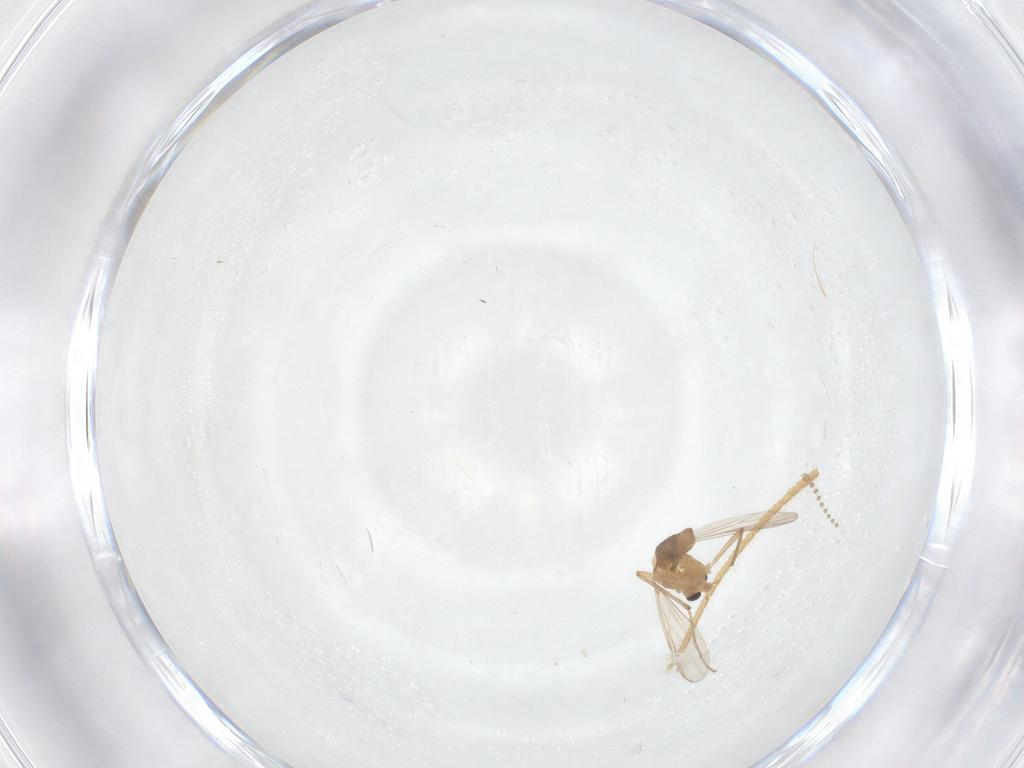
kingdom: Animalia
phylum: Arthropoda
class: Insecta
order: Diptera
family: Chironomidae
